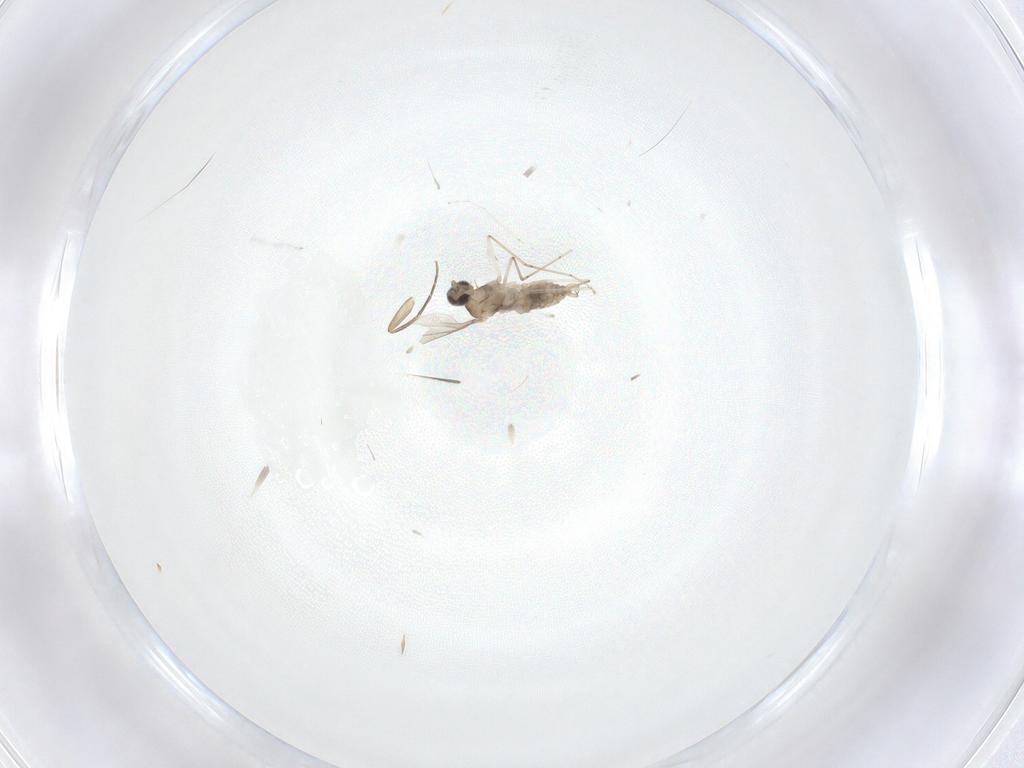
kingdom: Animalia
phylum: Arthropoda
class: Insecta
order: Diptera
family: Cecidomyiidae
